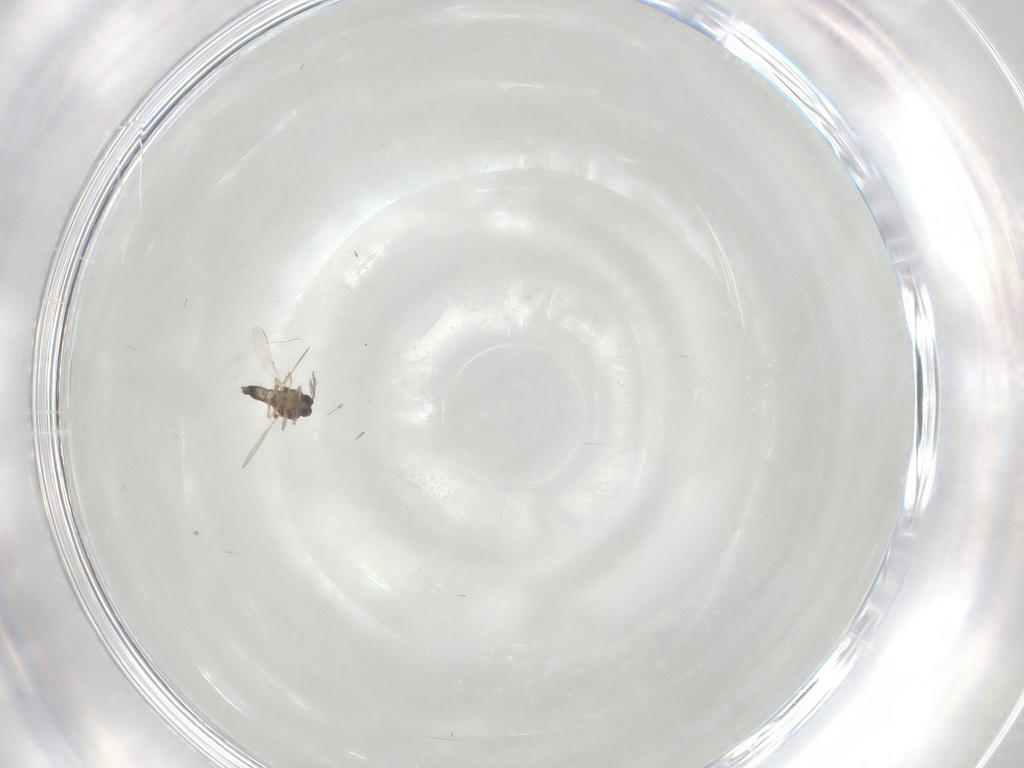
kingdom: Animalia
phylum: Arthropoda
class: Insecta
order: Diptera
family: Ceratopogonidae
